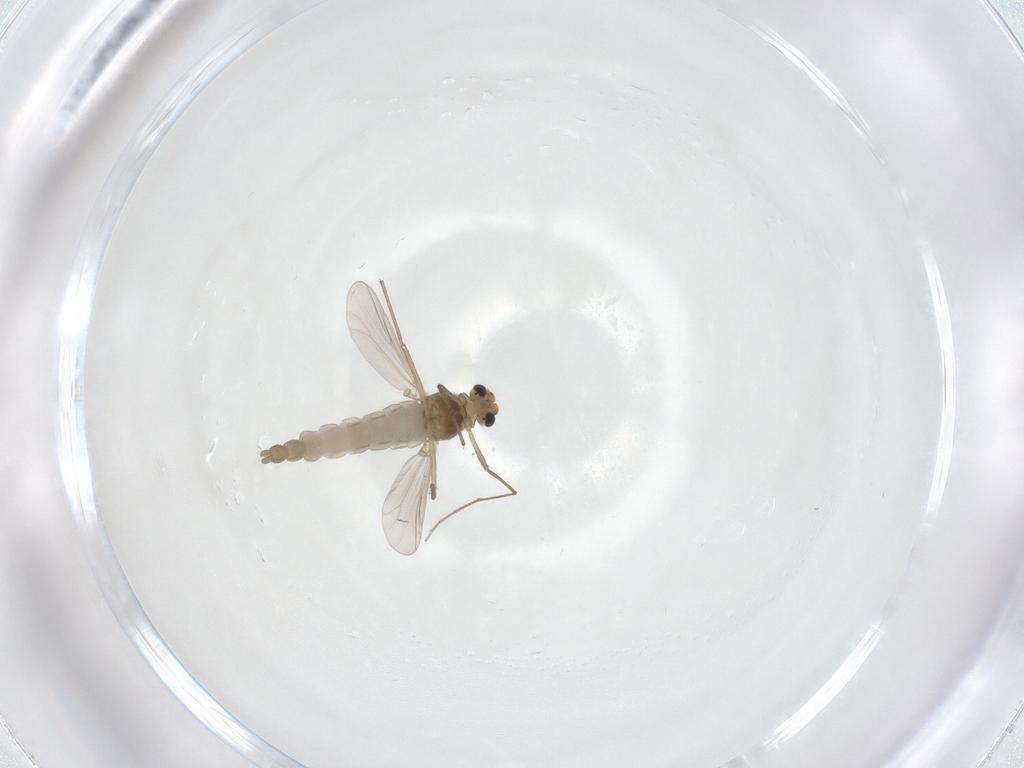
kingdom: Animalia
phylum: Arthropoda
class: Insecta
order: Diptera
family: Chironomidae
